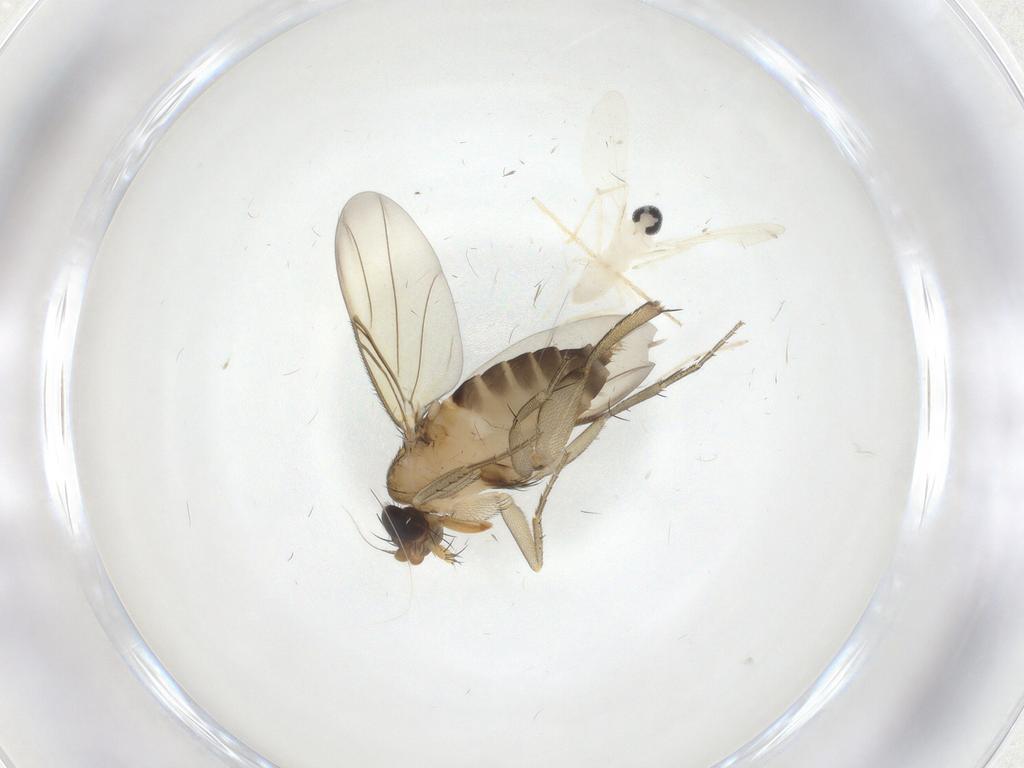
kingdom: Animalia
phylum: Arthropoda
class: Insecta
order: Diptera
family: Cecidomyiidae
